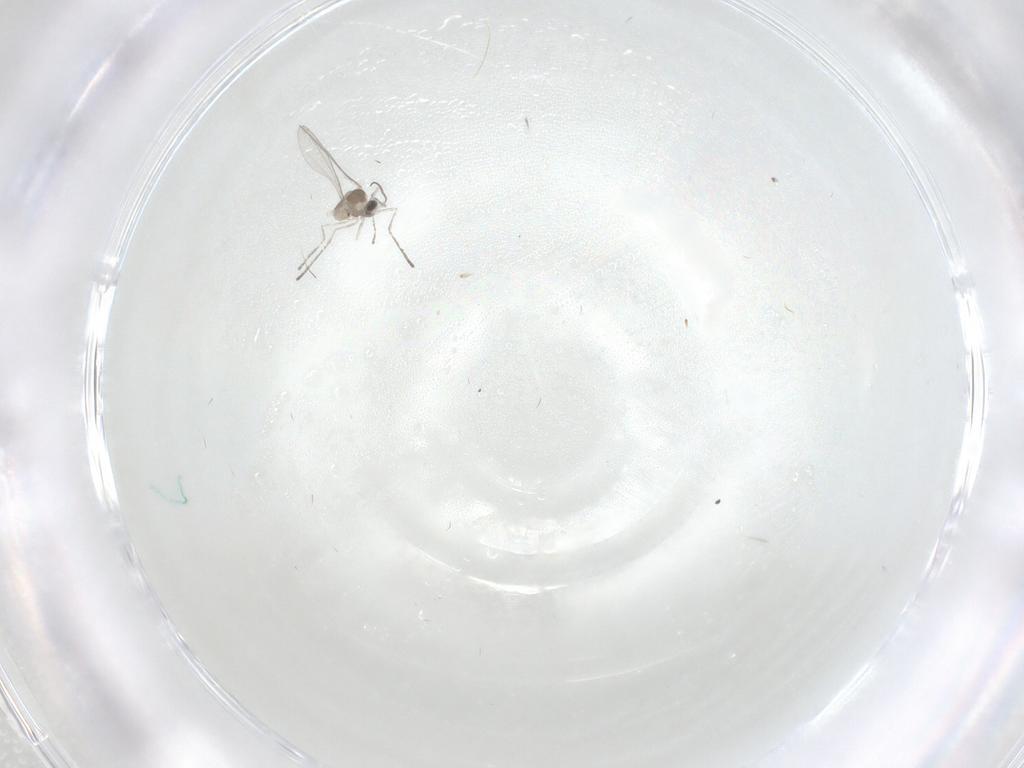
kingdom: Animalia
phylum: Arthropoda
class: Insecta
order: Diptera
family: Cecidomyiidae
